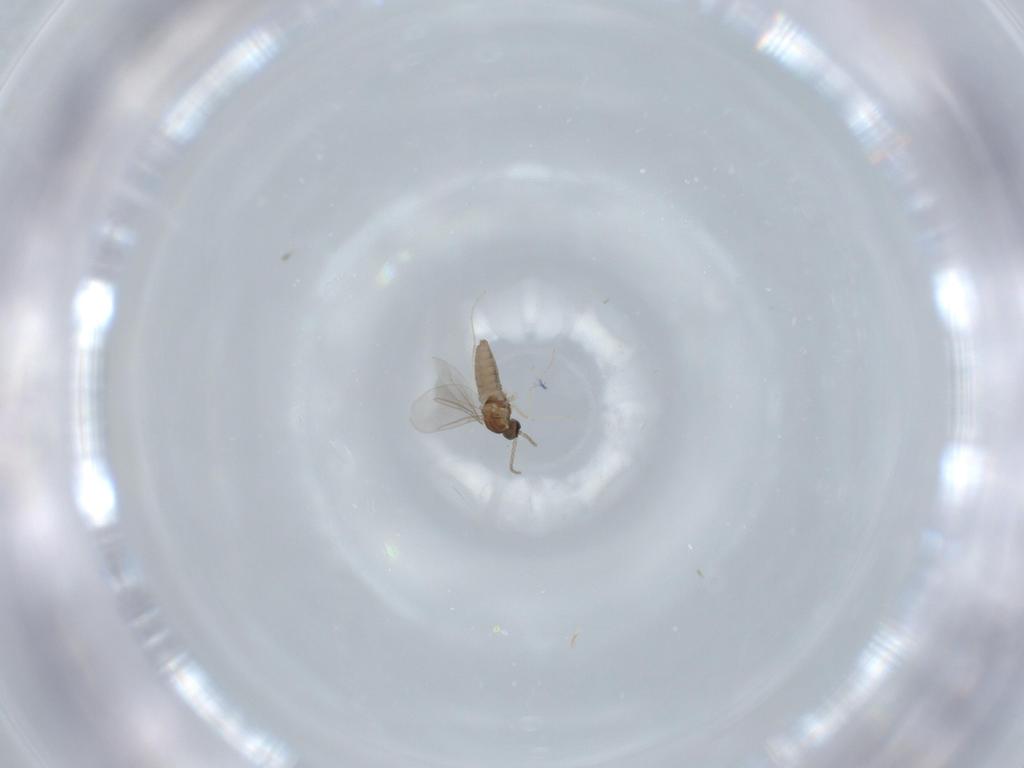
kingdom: Animalia
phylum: Arthropoda
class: Insecta
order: Diptera
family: Cecidomyiidae
